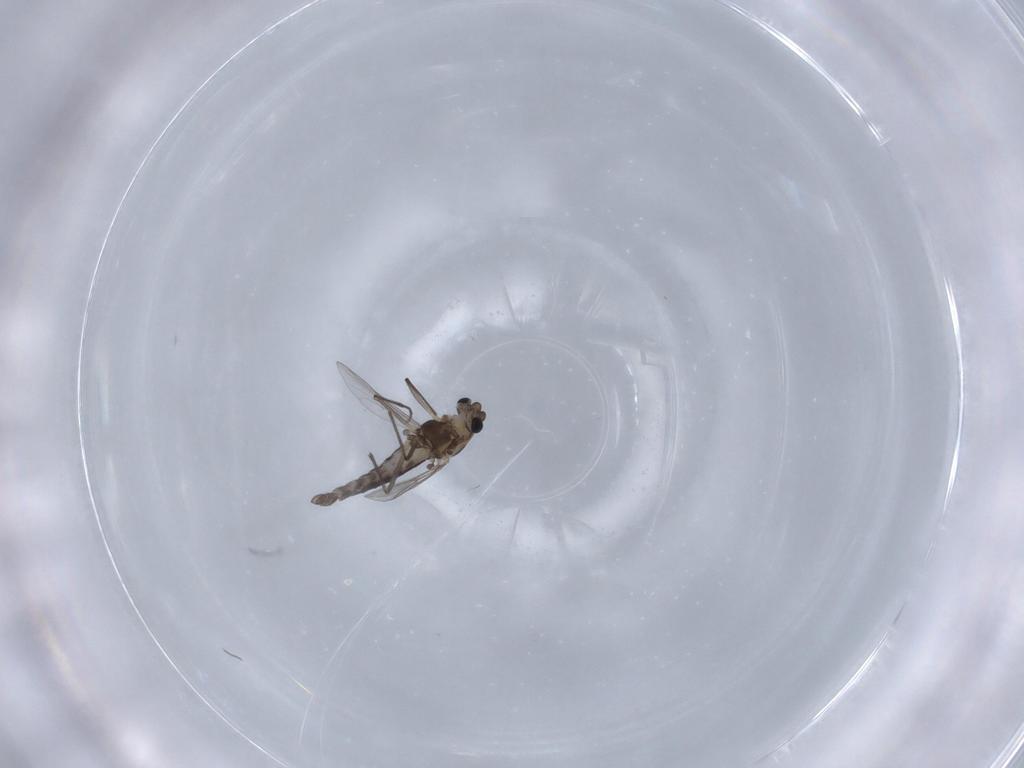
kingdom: Animalia
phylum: Arthropoda
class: Insecta
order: Diptera
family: Chironomidae
